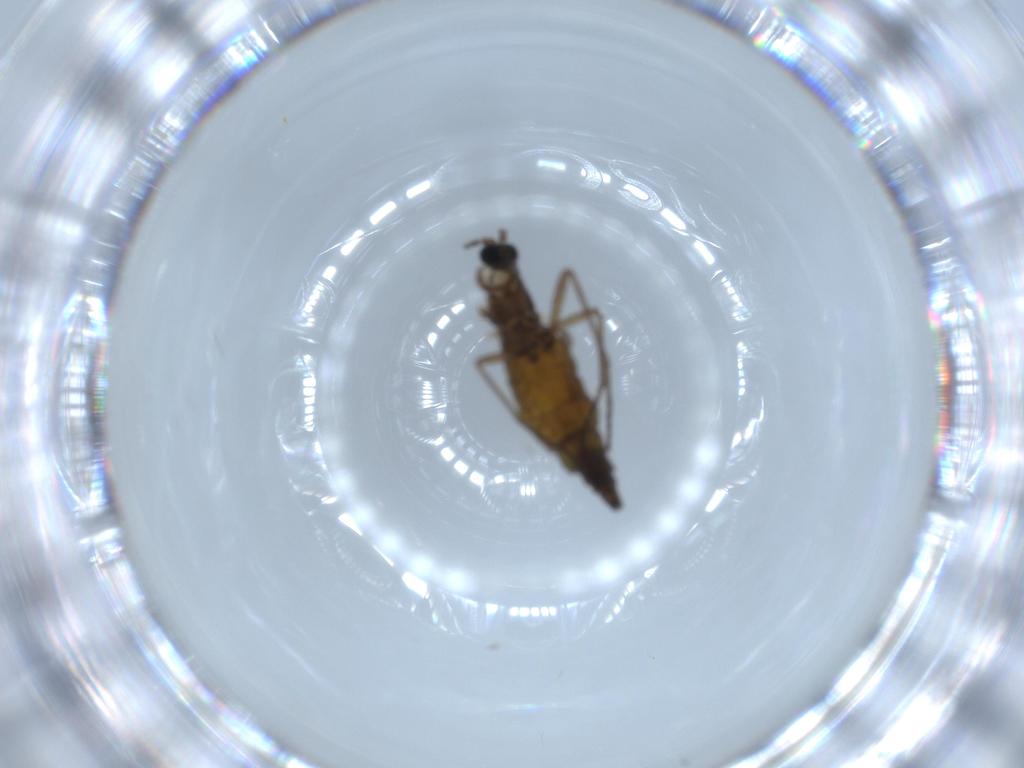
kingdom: Animalia
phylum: Arthropoda
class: Insecta
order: Diptera
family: Sciaridae
